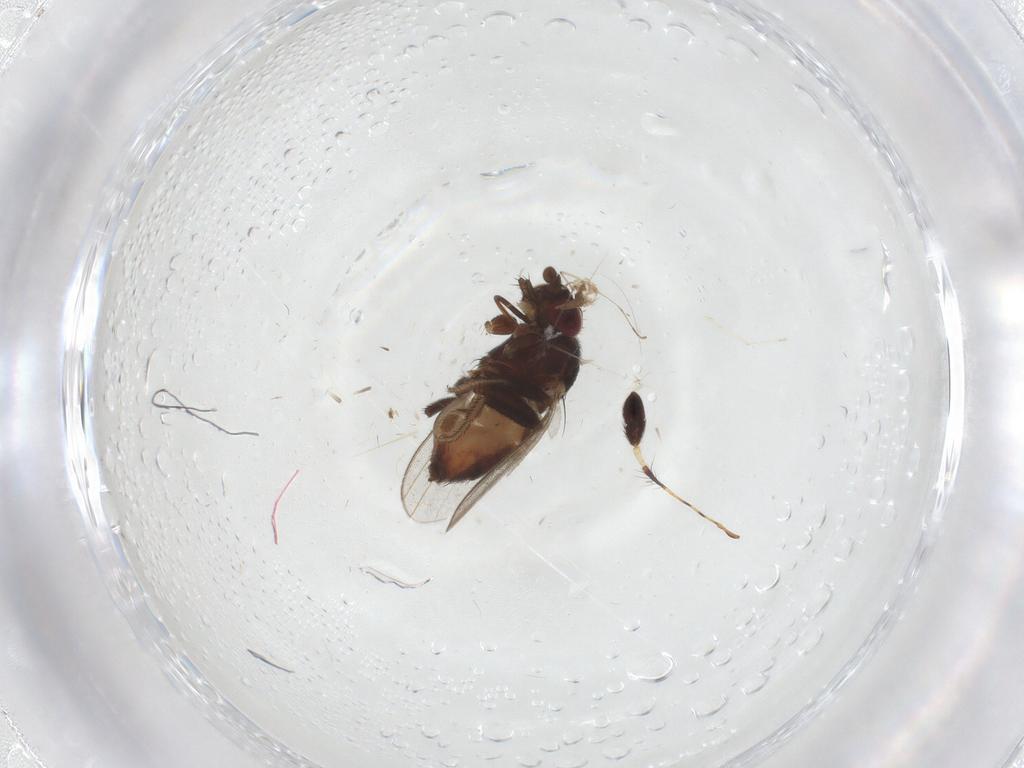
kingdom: Animalia
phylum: Arthropoda
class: Insecta
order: Diptera
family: Cecidomyiidae
